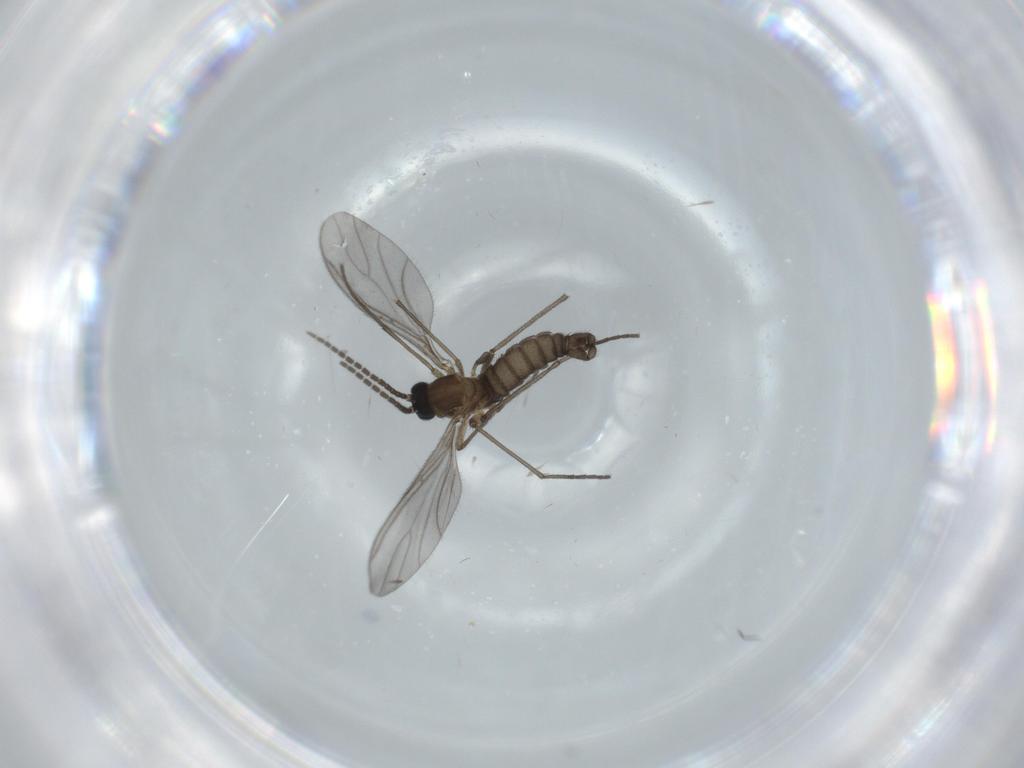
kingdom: Animalia
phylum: Arthropoda
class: Insecta
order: Diptera
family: Sciaridae
